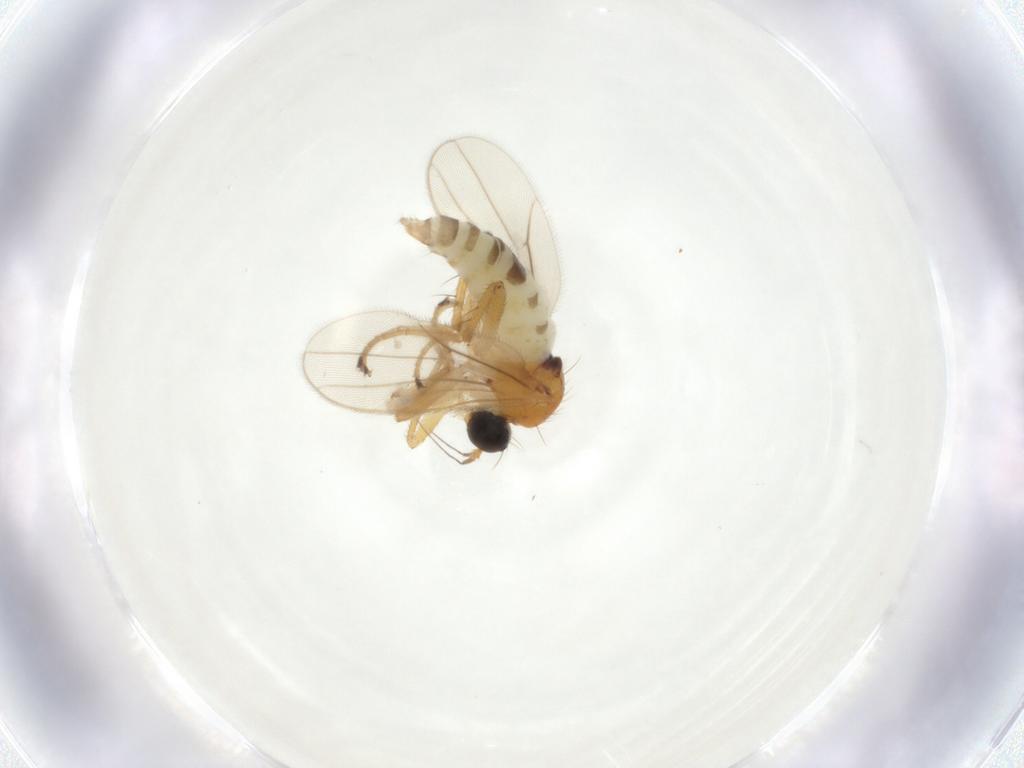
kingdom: Animalia
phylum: Arthropoda
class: Insecta
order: Diptera
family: Hybotidae
